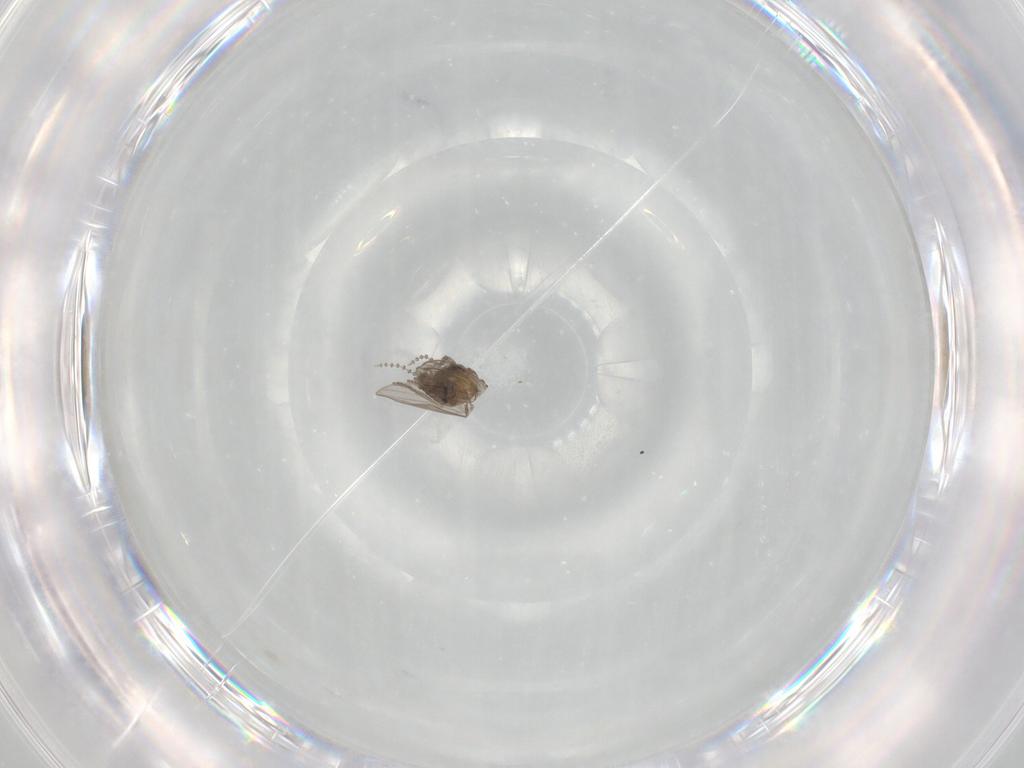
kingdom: Animalia
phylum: Arthropoda
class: Insecta
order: Diptera
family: Psychodidae
